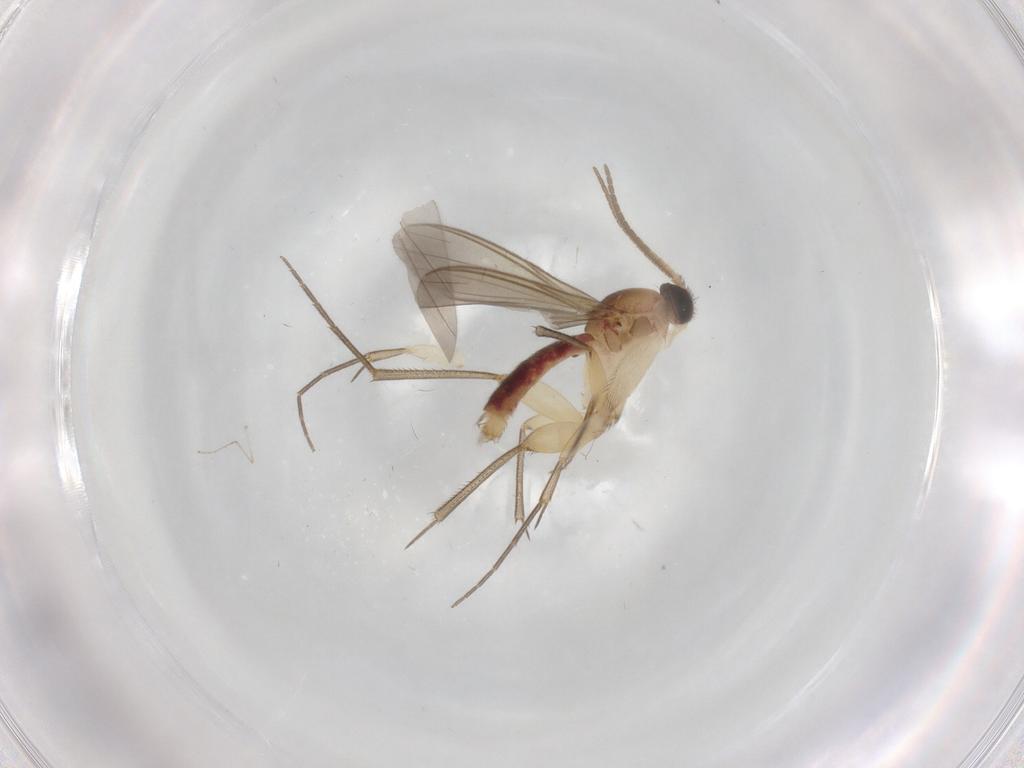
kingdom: Animalia
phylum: Arthropoda
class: Insecta
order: Diptera
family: Mycetophilidae
